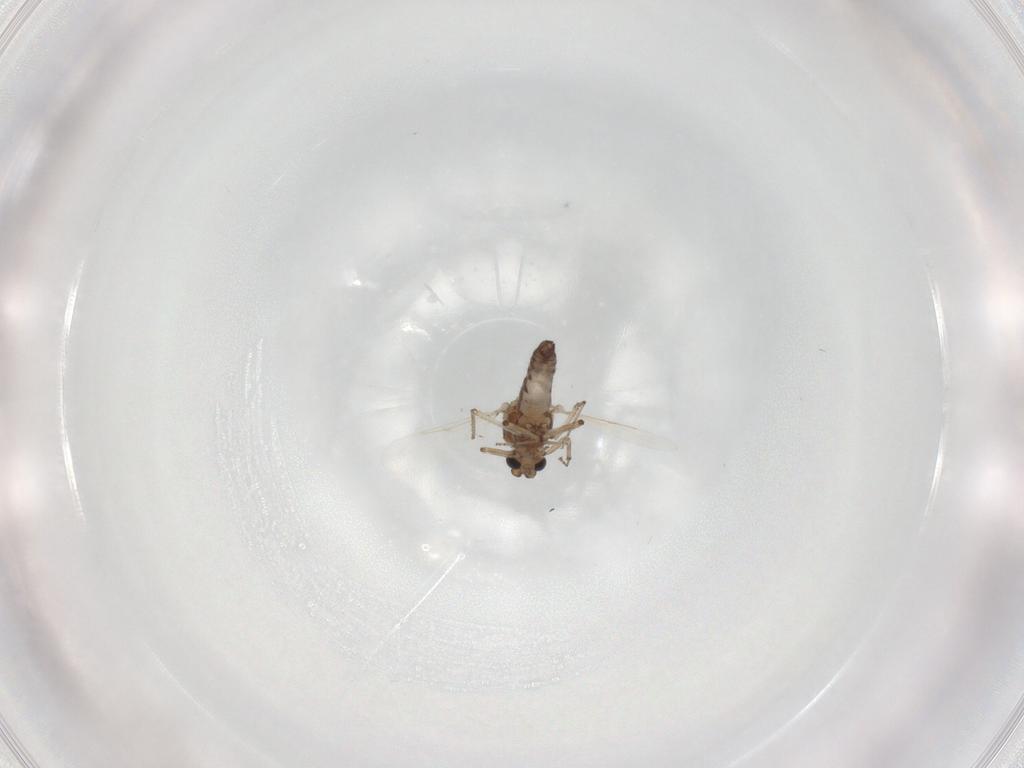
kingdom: Animalia
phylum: Arthropoda
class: Insecta
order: Diptera
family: Ceratopogonidae
